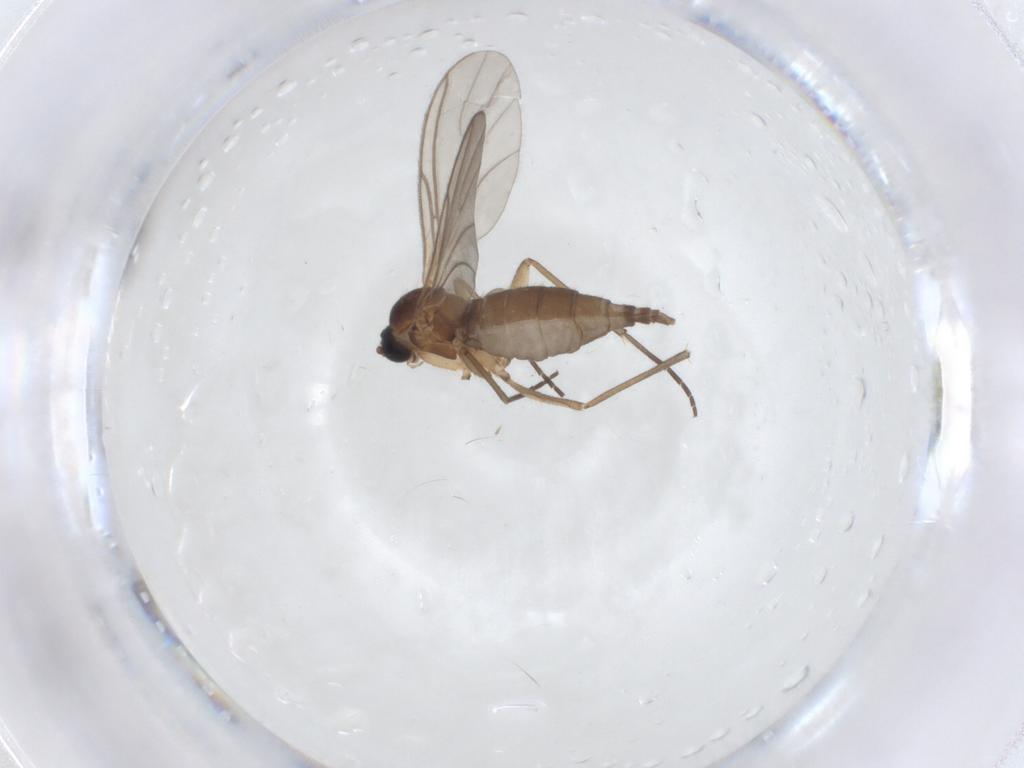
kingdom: Animalia
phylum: Arthropoda
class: Insecta
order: Diptera
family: Sciaridae
